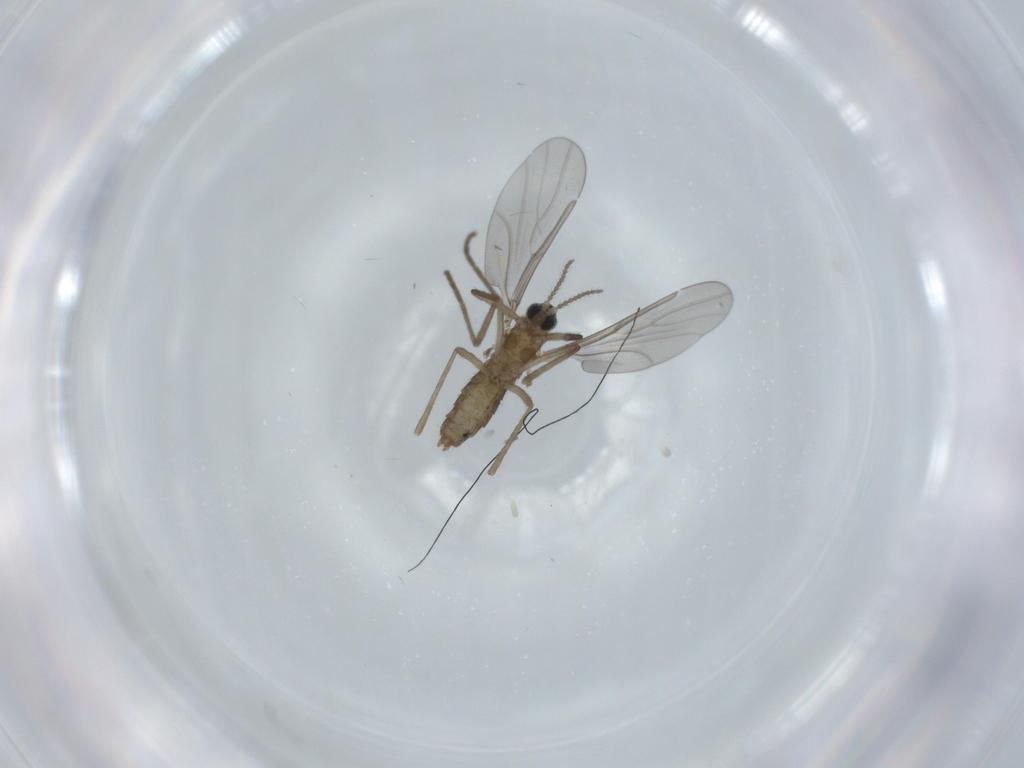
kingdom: Animalia
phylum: Arthropoda
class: Insecta
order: Diptera
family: Cecidomyiidae
